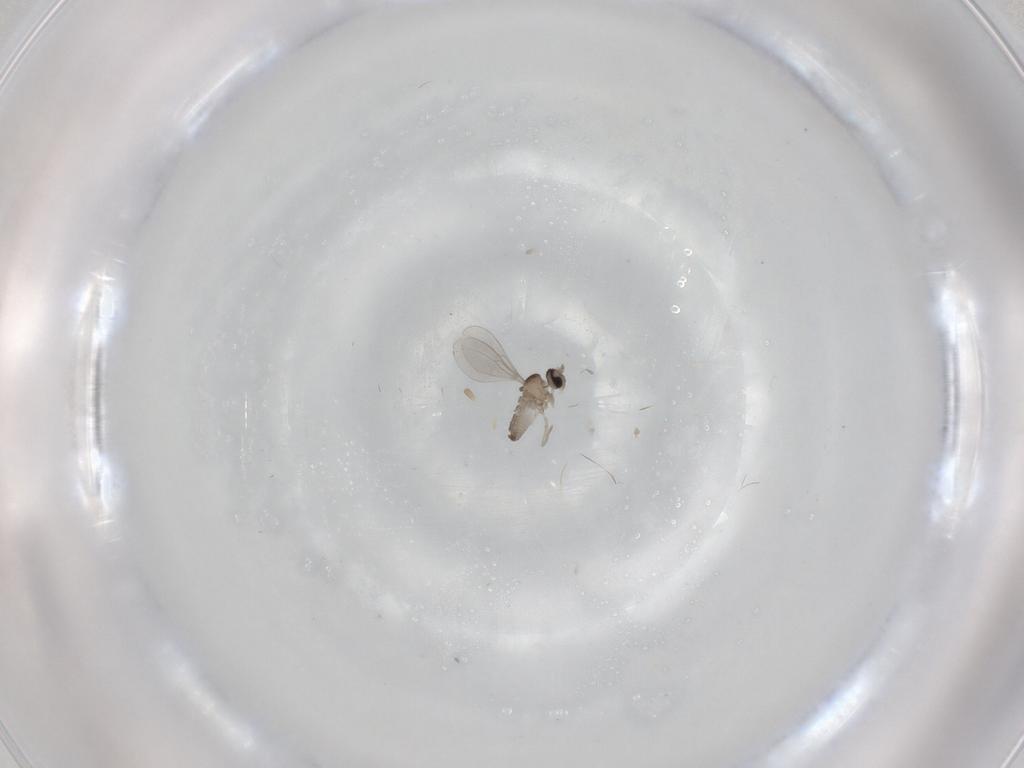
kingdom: Animalia
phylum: Arthropoda
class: Insecta
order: Diptera
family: Cecidomyiidae
